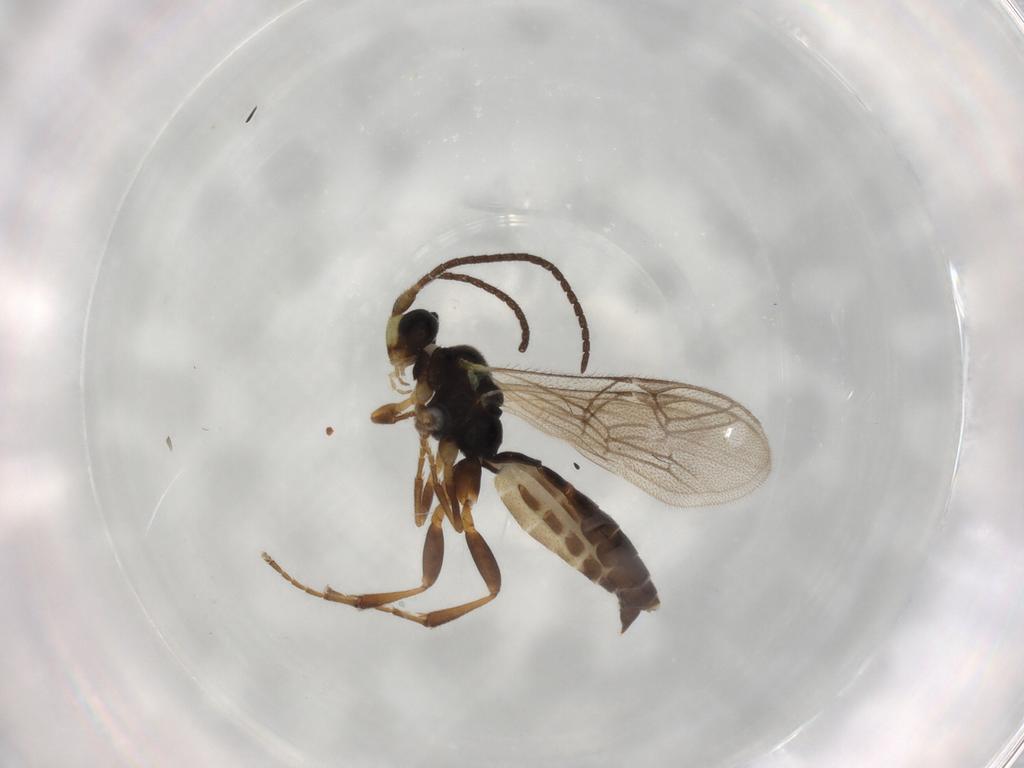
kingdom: Animalia
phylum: Arthropoda
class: Insecta
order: Hymenoptera
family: Ichneumonidae
